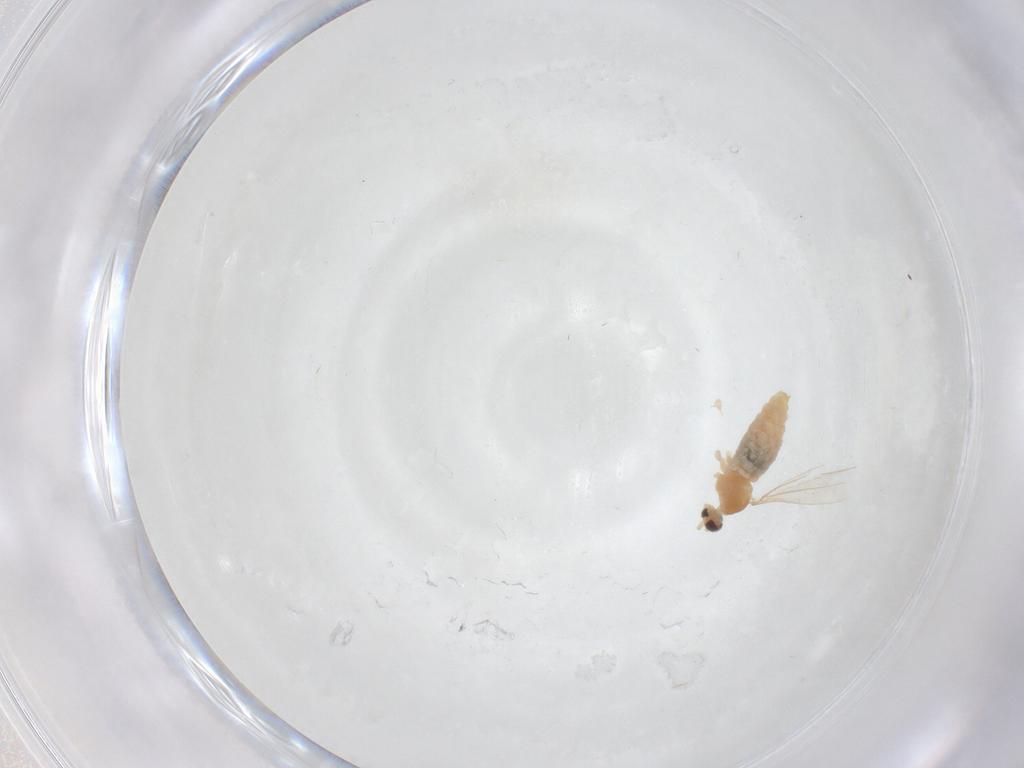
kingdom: Animalia
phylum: Arthropoda
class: Insecta
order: Diptera
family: Cecidomyiidae
